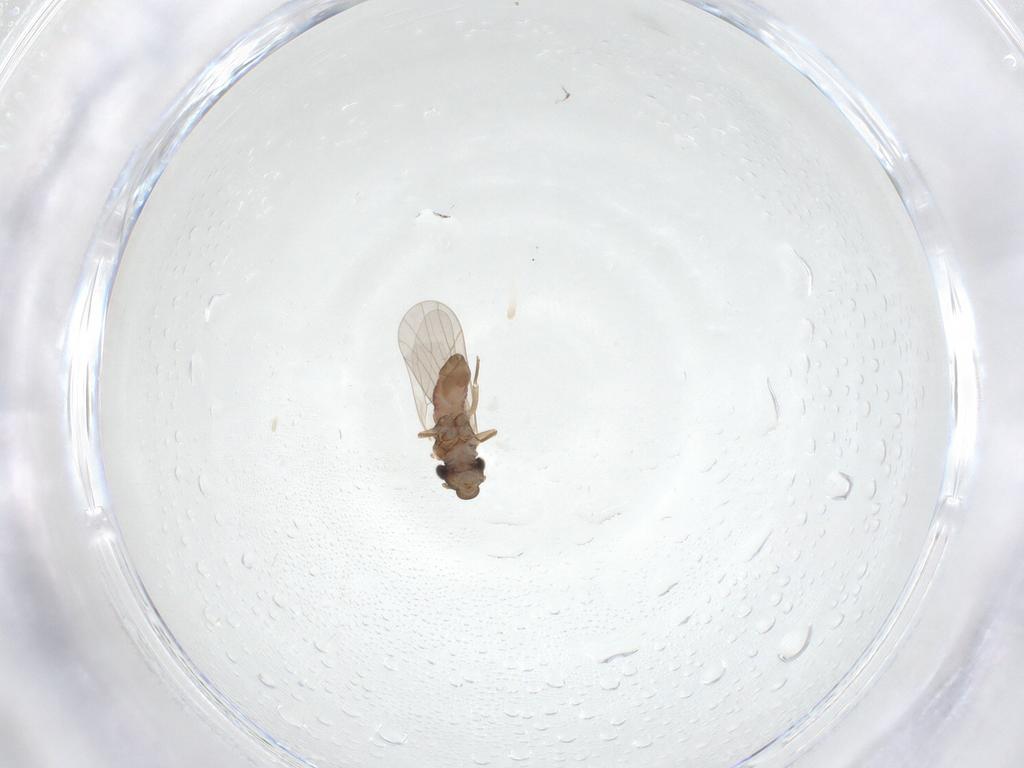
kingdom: Animalia
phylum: Arthropoda
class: Insecta
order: Psocodea
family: Lepidopsocidae
